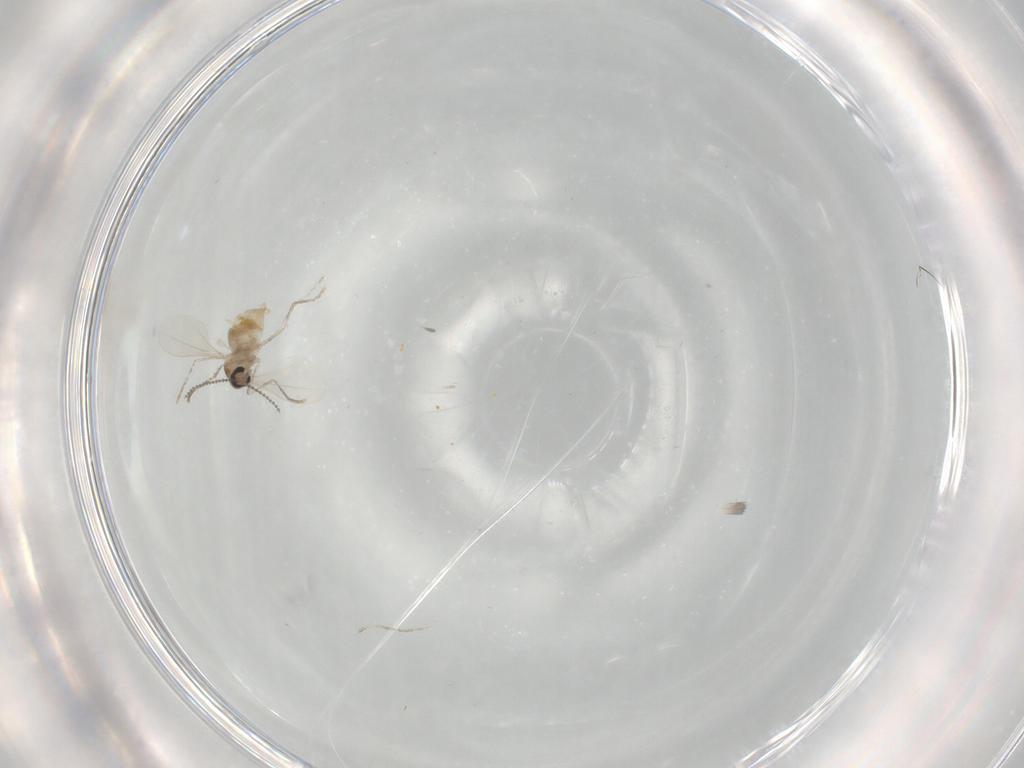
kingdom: Animalia
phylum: Arthropoda
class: Insecta
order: Diptera
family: Cecidomyiidae
